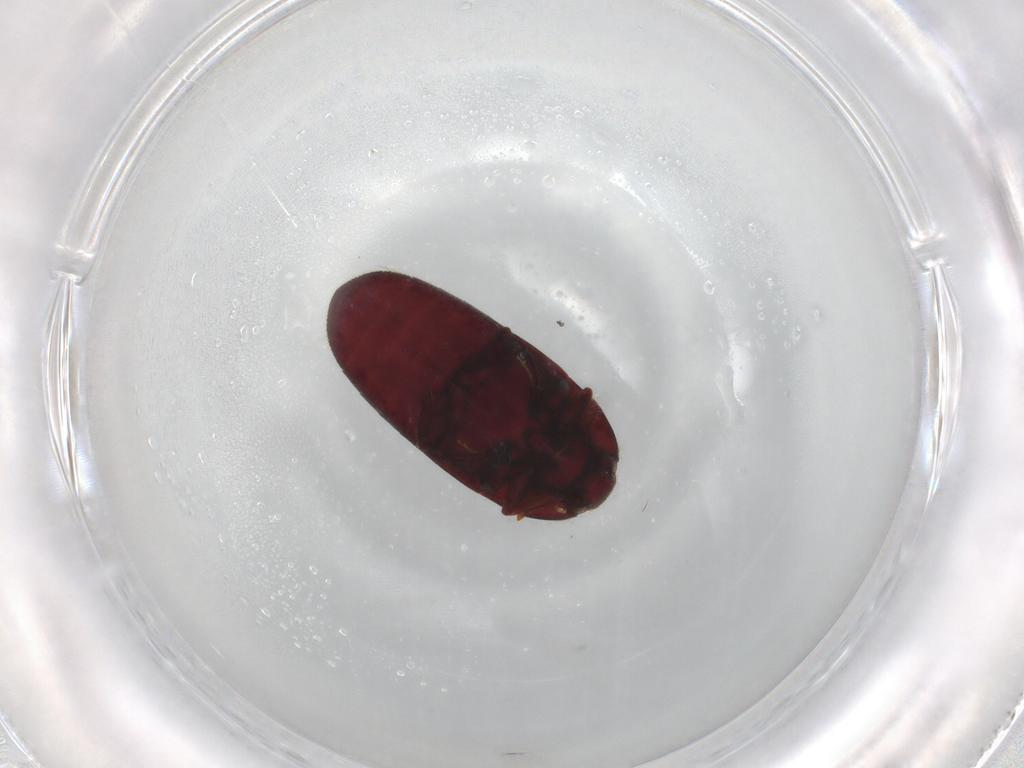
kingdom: Animalia
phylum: Arthropoda
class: Insecta
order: Coleoptera
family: Throscidae
